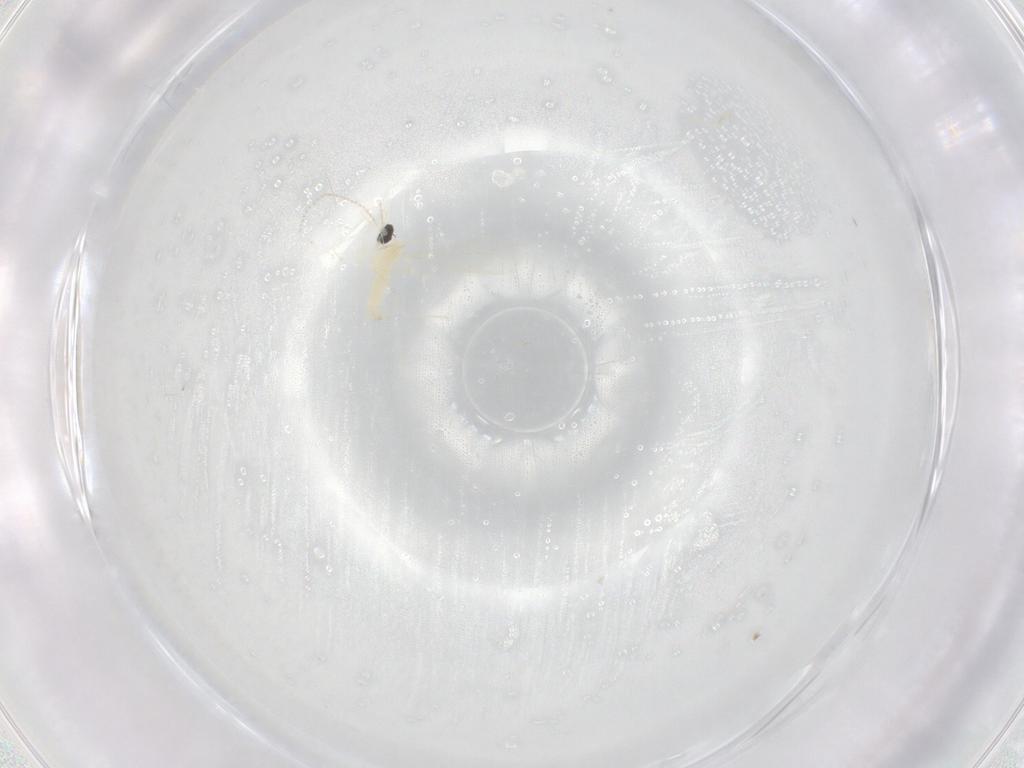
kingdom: Animalia
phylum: Arthropoda
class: Insecta
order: Diptera
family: Cecidomyiidae
